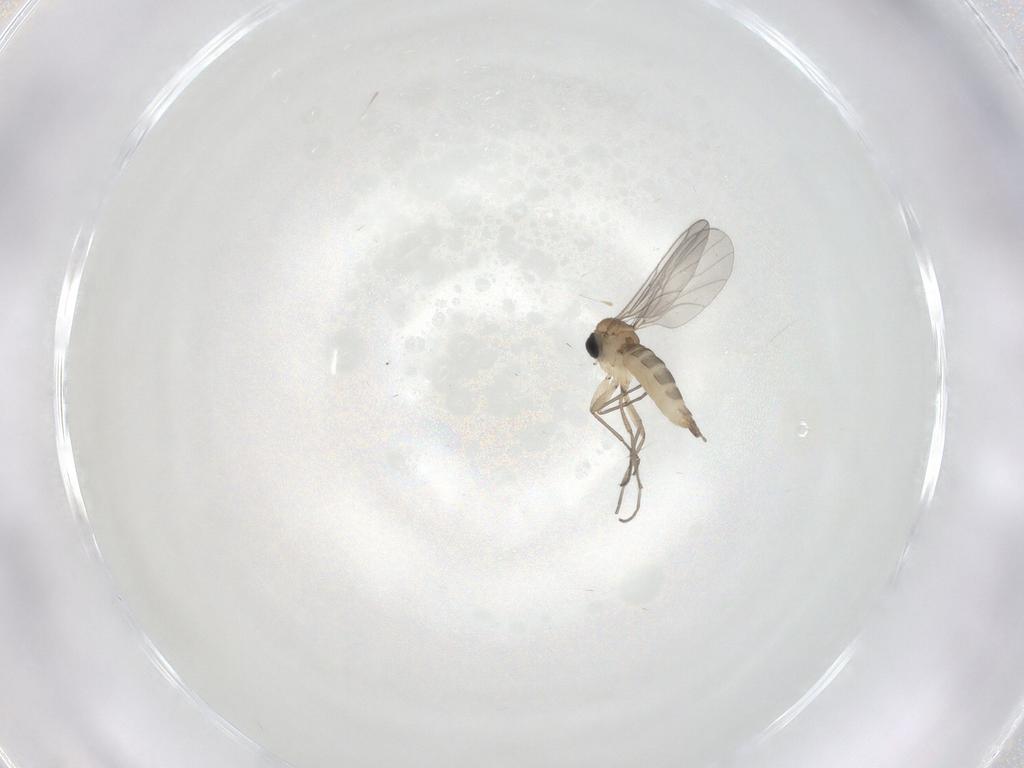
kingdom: Animalia
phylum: Arthropoda
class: Insecta
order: Diptera
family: Sciaridae
